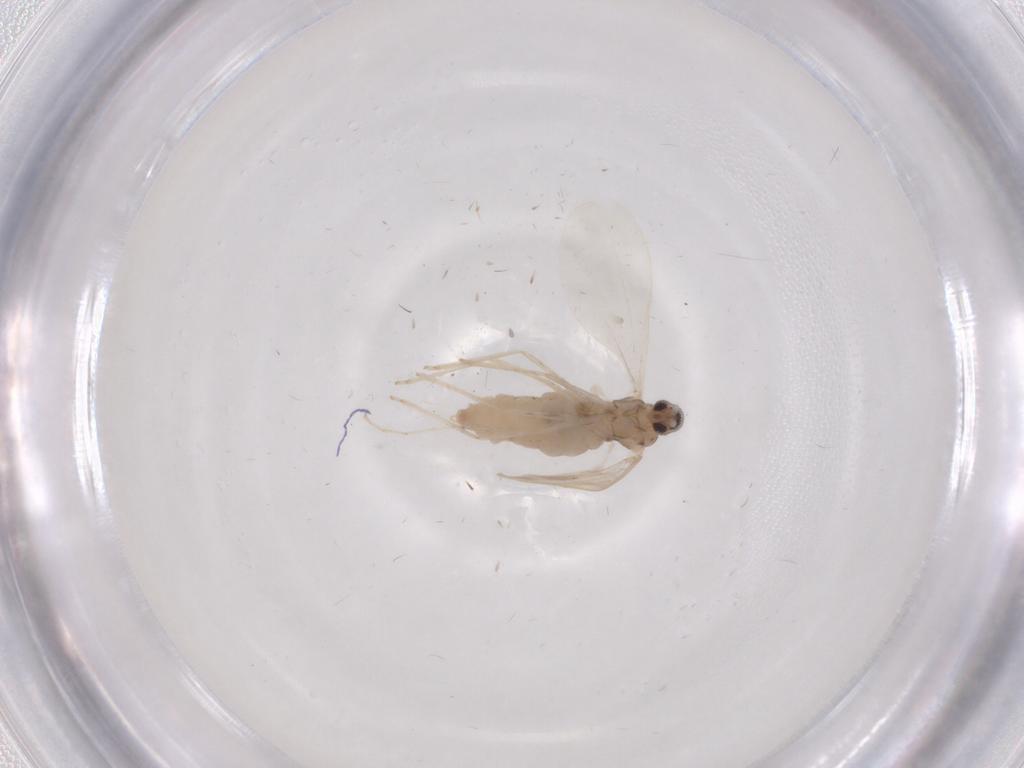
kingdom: Animalia
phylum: Arthropoda
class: Insecta
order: Diptera
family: Cecidomyiidae
